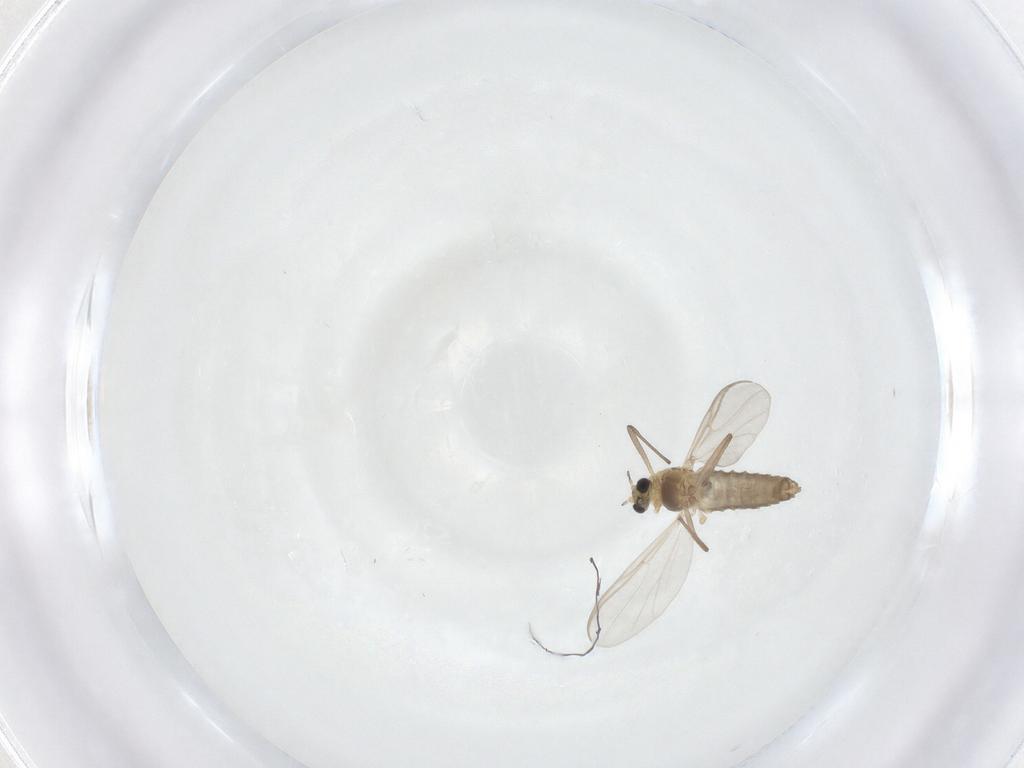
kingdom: Animalia
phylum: Arthropoda
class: Insecta
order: Diptera
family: Chironomidae
